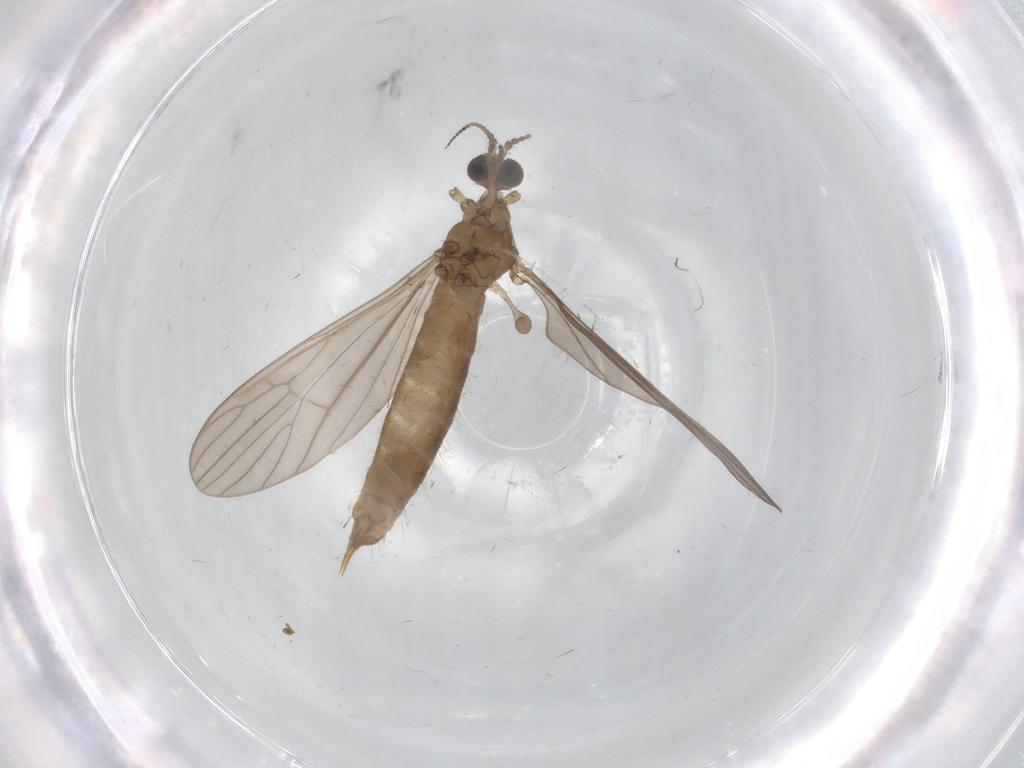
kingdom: Animalia
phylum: Arthropoda
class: Insecta
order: Diptera
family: Limoniidae
